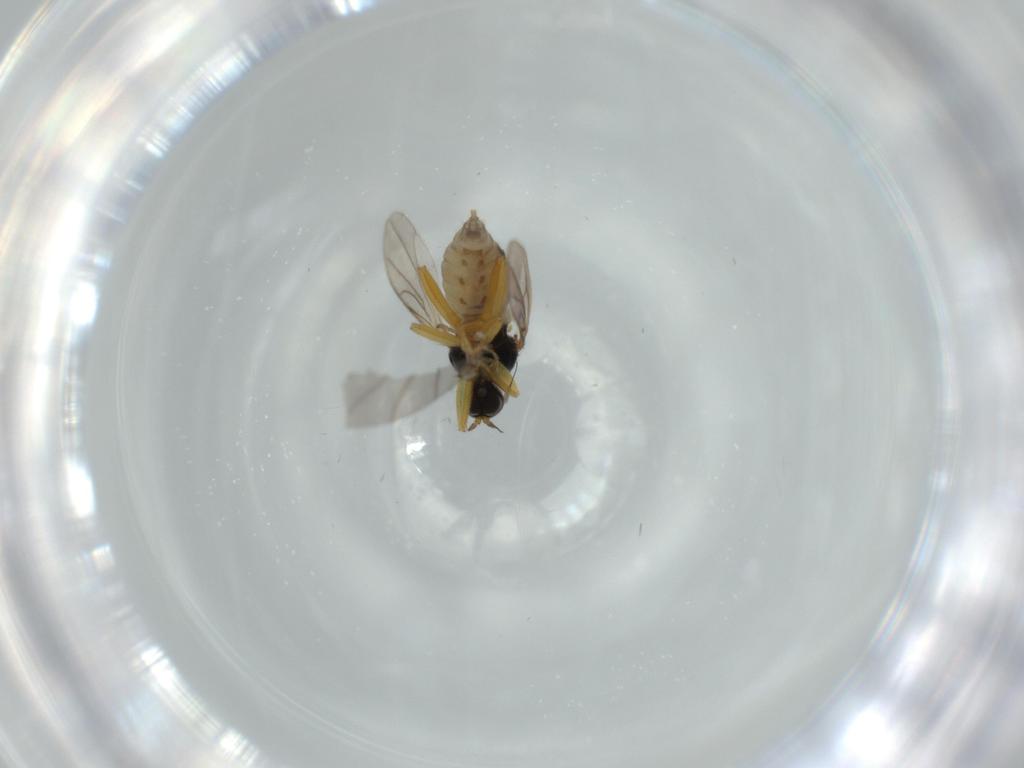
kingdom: Animalia
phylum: Arthropoda
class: Insecta
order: Diptera
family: Hybotidae
